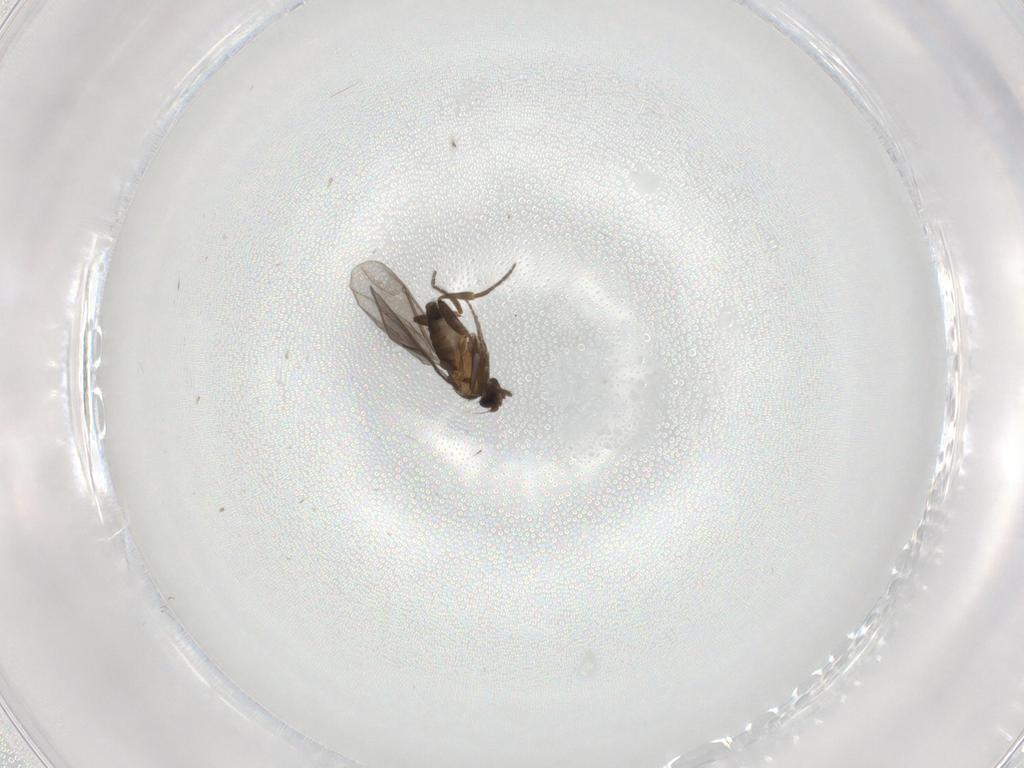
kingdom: Animalia
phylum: Arthropoda
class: Insecta
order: Diptera
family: Phoridae
